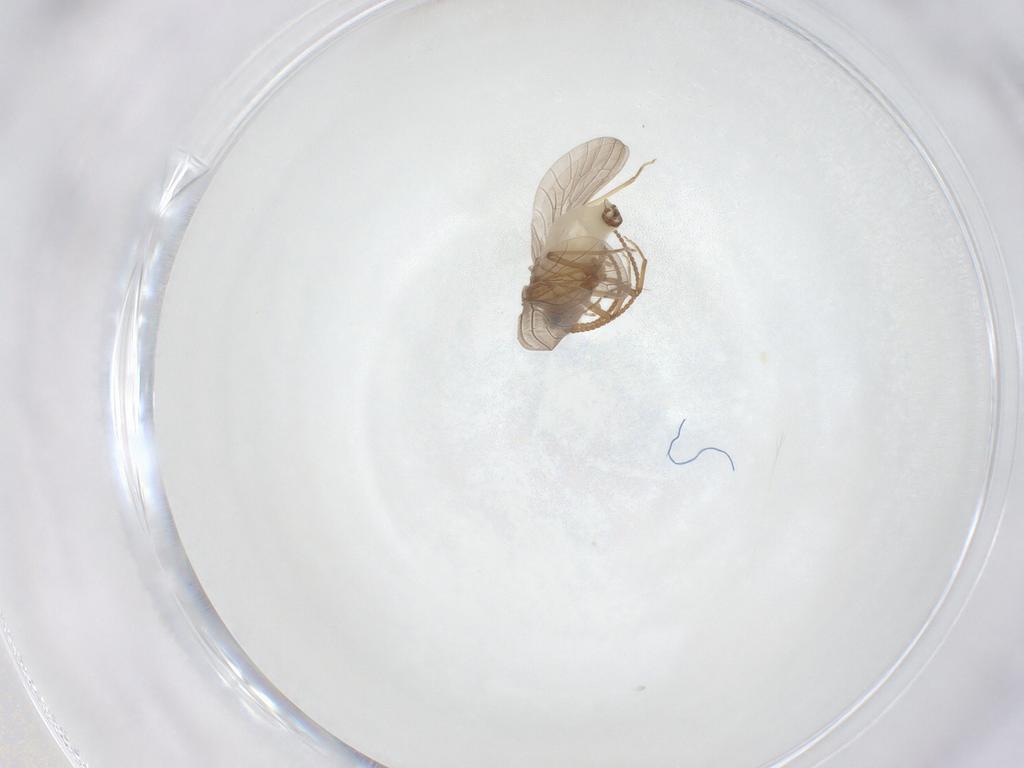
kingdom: Animalia
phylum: Arthropoda
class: Insecta
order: Neuroptera
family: Coniopterygidae
